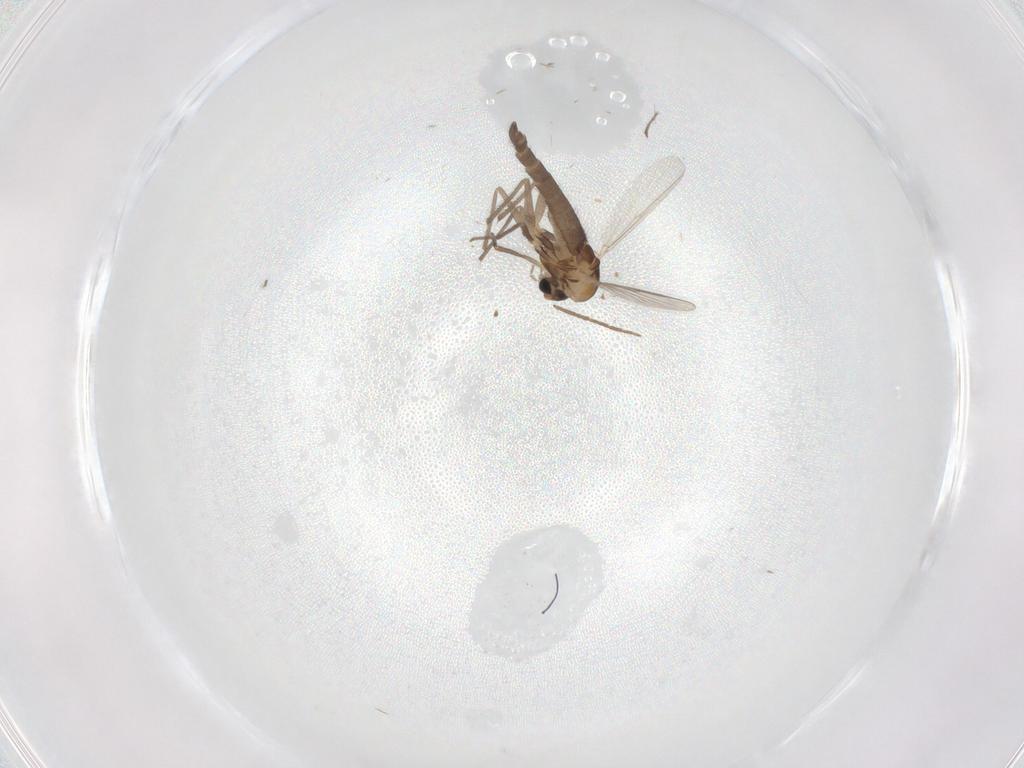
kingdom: Animalia
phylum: Arthropoda
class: Insecta
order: Diptera
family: Chironomidae
